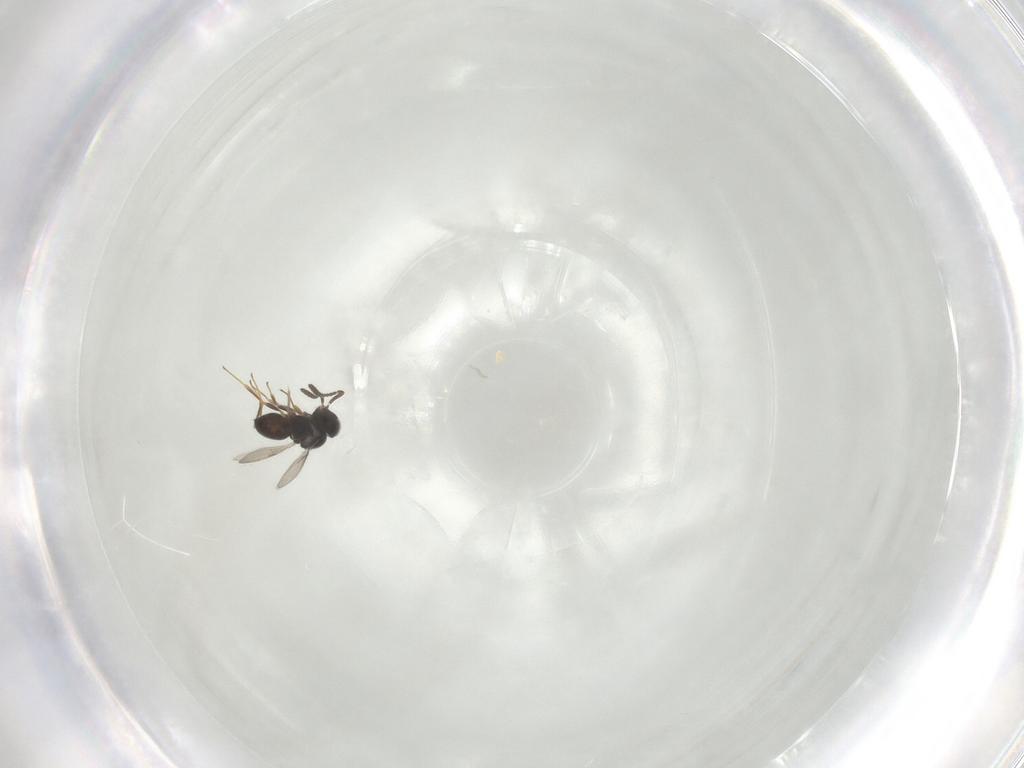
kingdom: Animalia
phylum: Arthropoda
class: Insecta
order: Hymenoptera
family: Scelionidae
